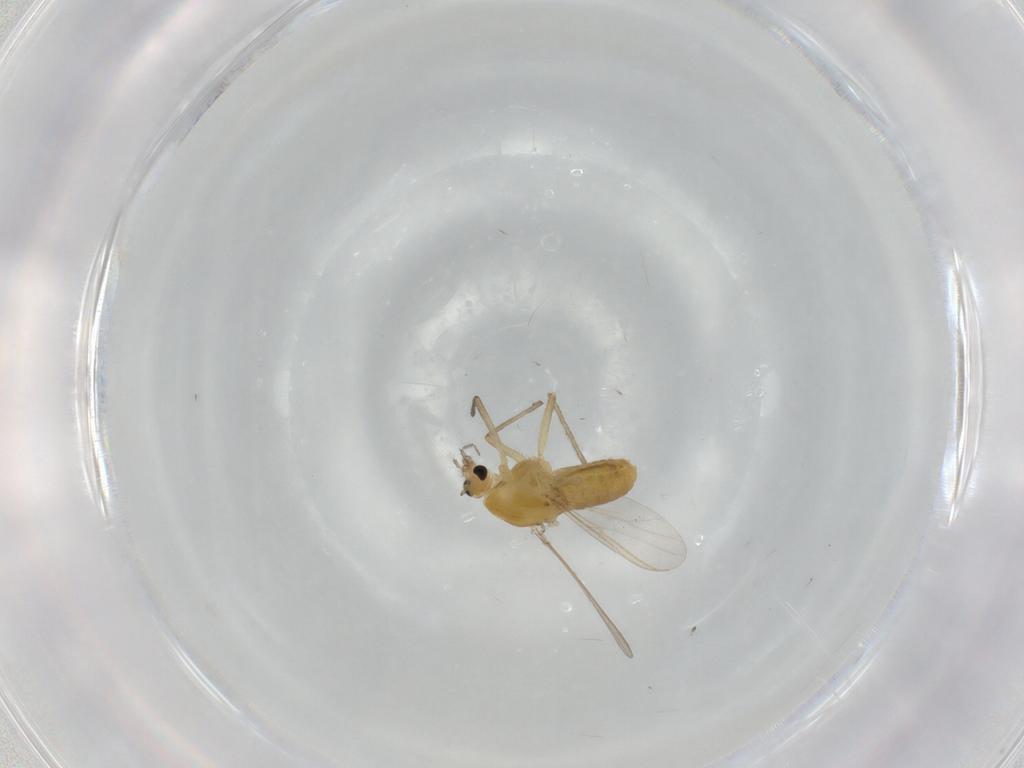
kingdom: Animalia
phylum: Arthropoda
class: Insecta
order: Diptera
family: Chironomidae
